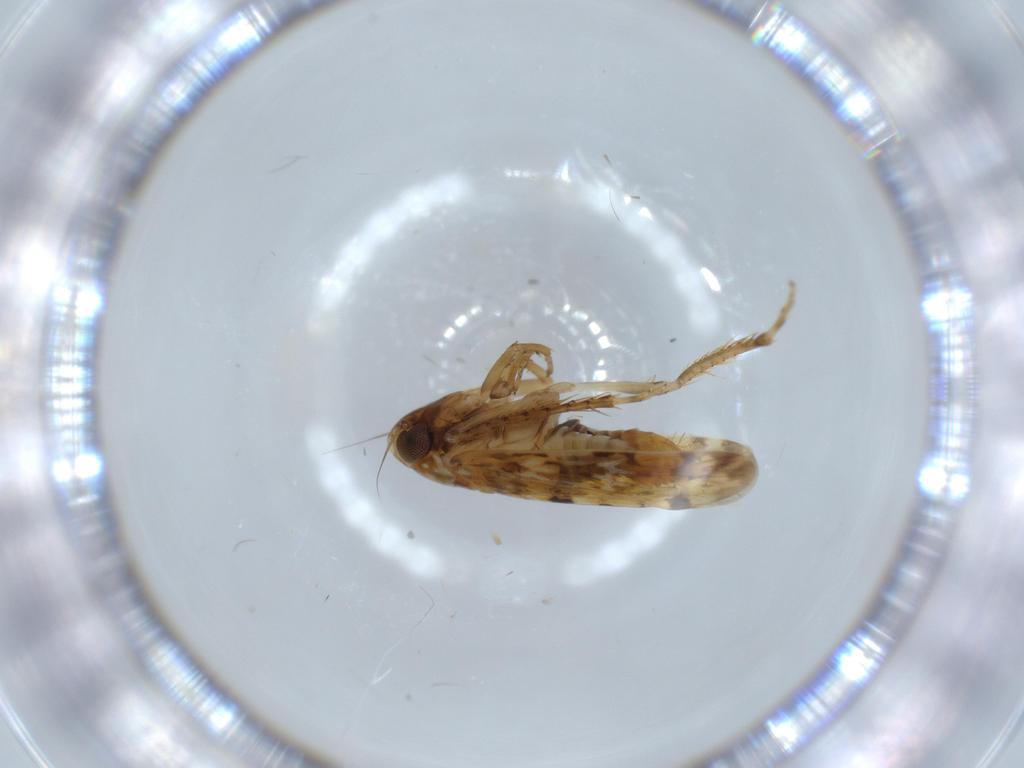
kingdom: Animalia
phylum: Arthropoda
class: Insecta
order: Hemiptera
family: Cicadellidae
